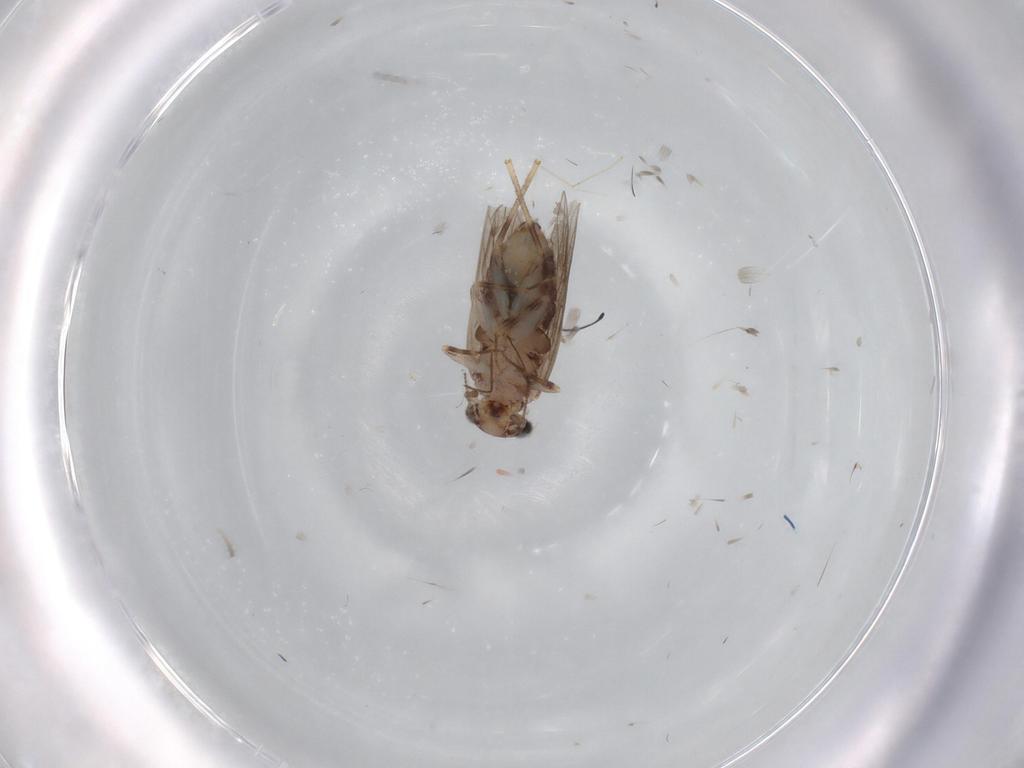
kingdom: Animalia
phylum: Arthropoda
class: Insecta
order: Psocodea
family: Lepidopsocidae
